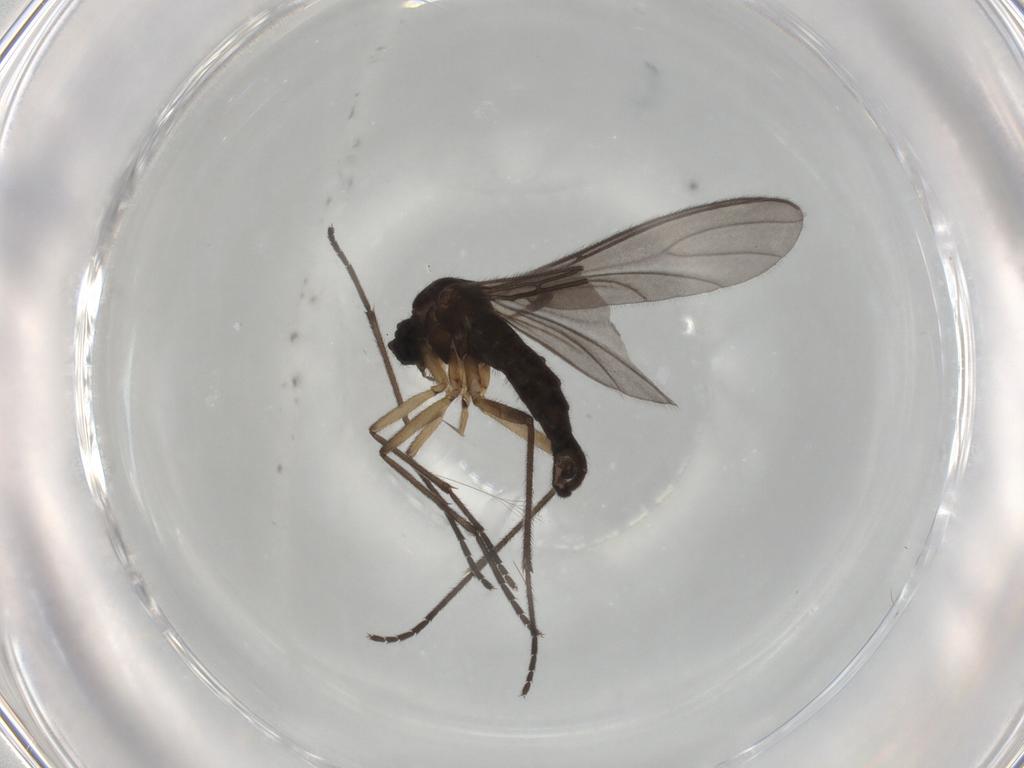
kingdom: Animalia
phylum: Arthropoda
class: Insecta
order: Diptera
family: Sciaridae
